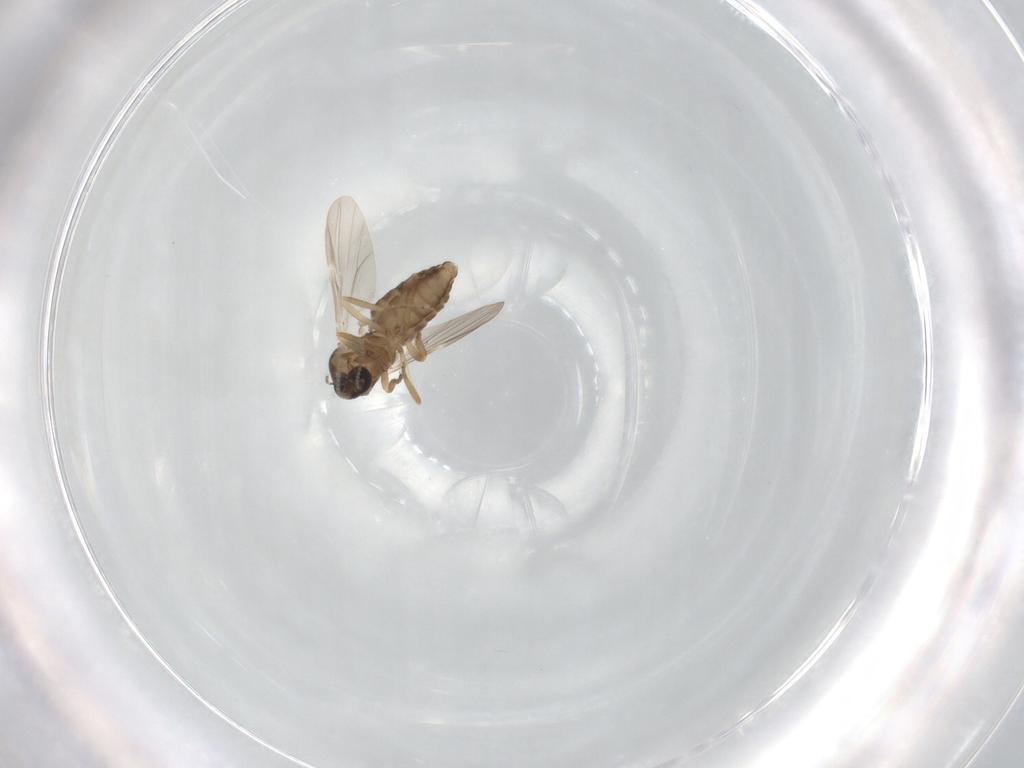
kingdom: Animalia
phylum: Arthropoda
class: Insecta
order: Diptera
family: Ceratopogonidae
